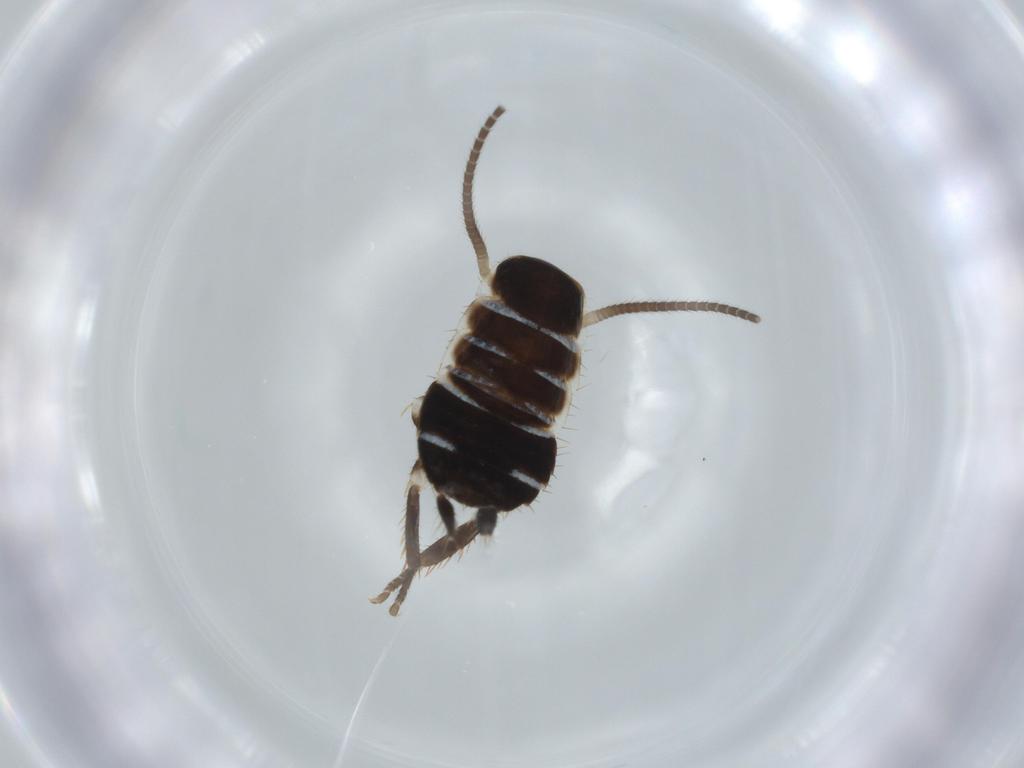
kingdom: Animalia
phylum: Arthropoda
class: Insecta
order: Blattodea
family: Ectobiidae
